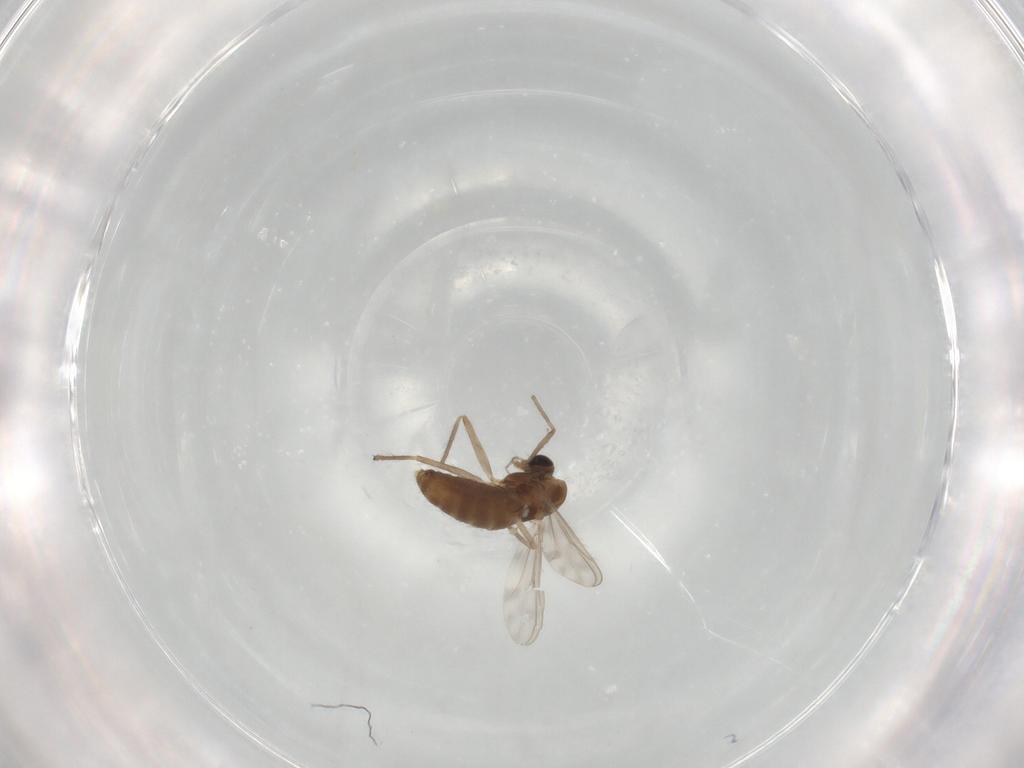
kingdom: Animalia
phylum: Arthropoda
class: Insecta
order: Diptera
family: Chironomidae
